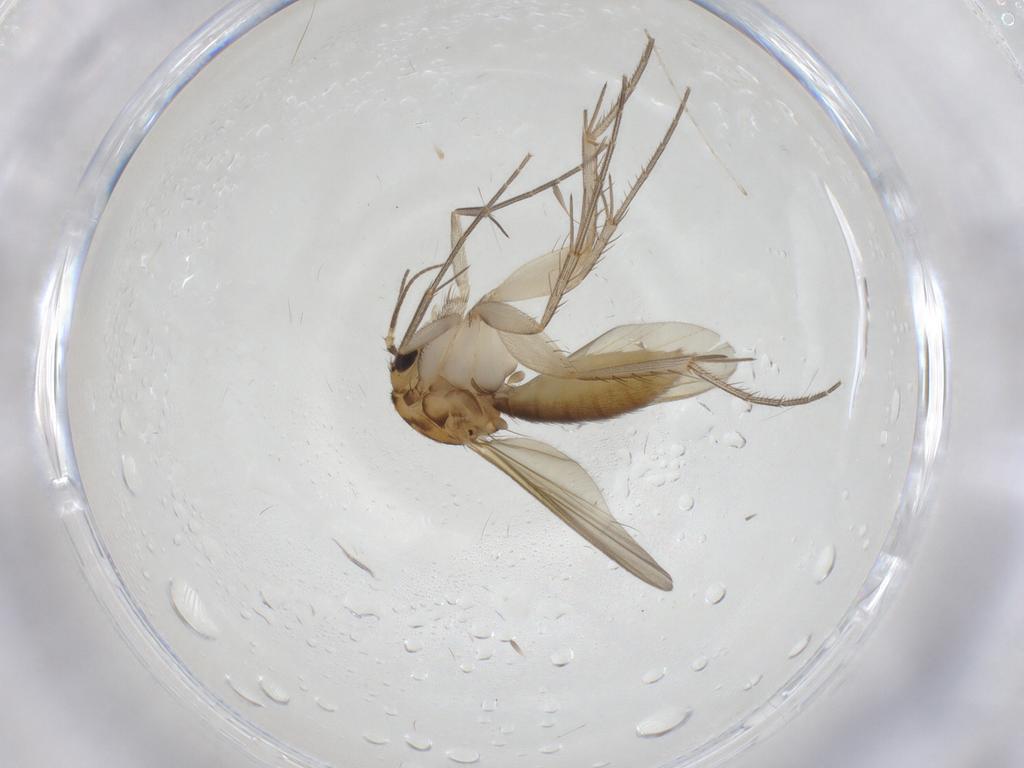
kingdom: Animalia
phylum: Arthropoda
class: Insecta
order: Diptera
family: Mycetophilidae
